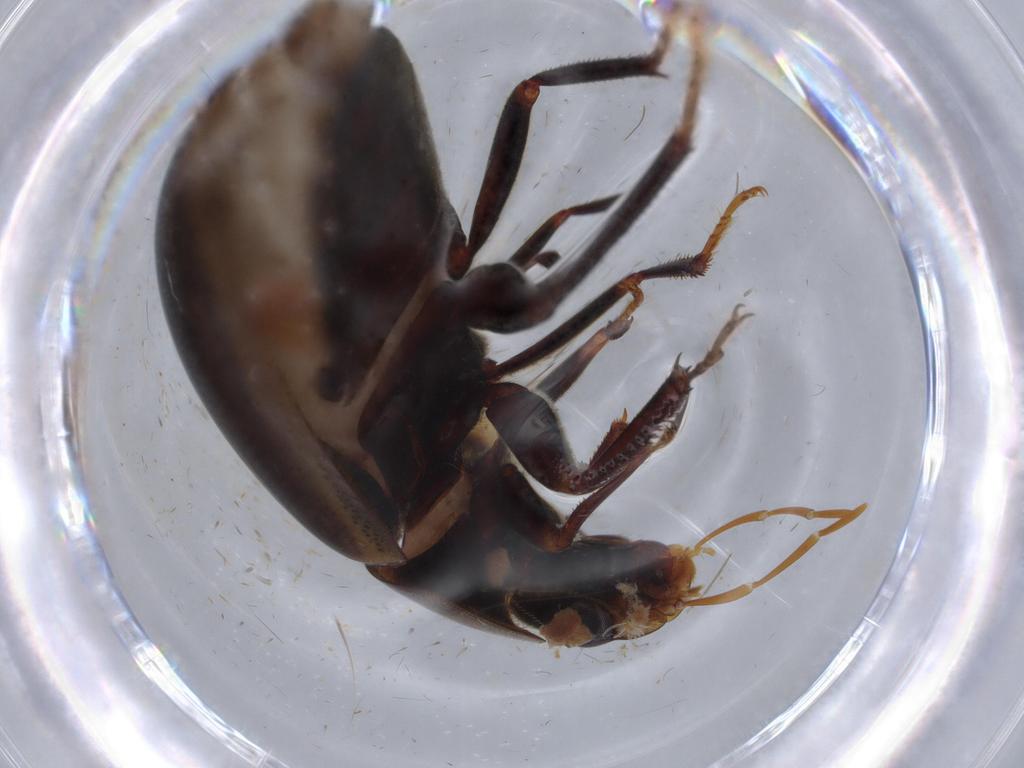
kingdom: Animalia
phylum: Arthropoda
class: Insecta
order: Coleoptera
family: Hydrophilidae
